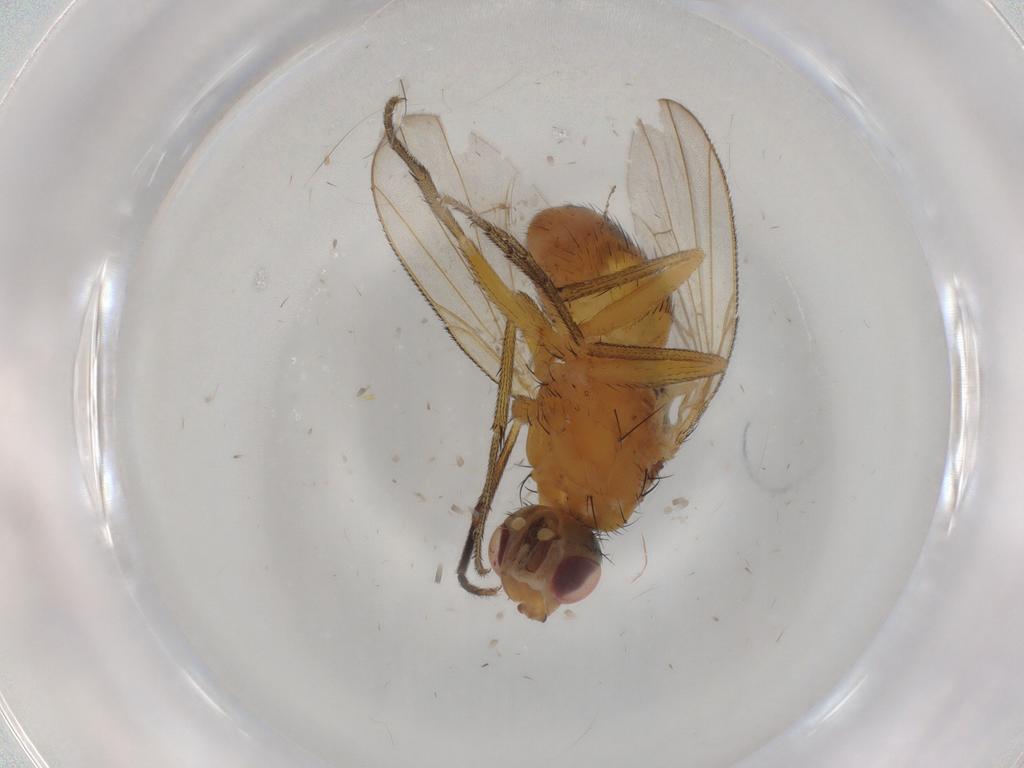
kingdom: Animalia
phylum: Arthropoda
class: Insecta
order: Diptera
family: Muscidae
